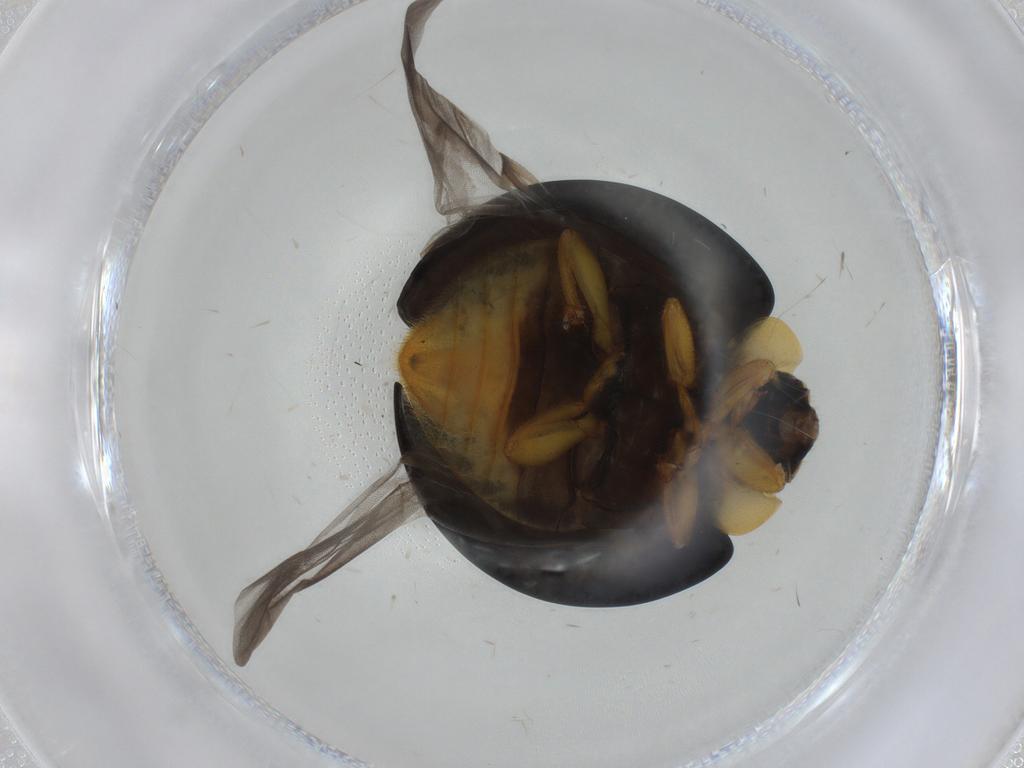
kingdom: Animalia
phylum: Arthropoda
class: Insecta
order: Coleoptera
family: Coccinellidae
